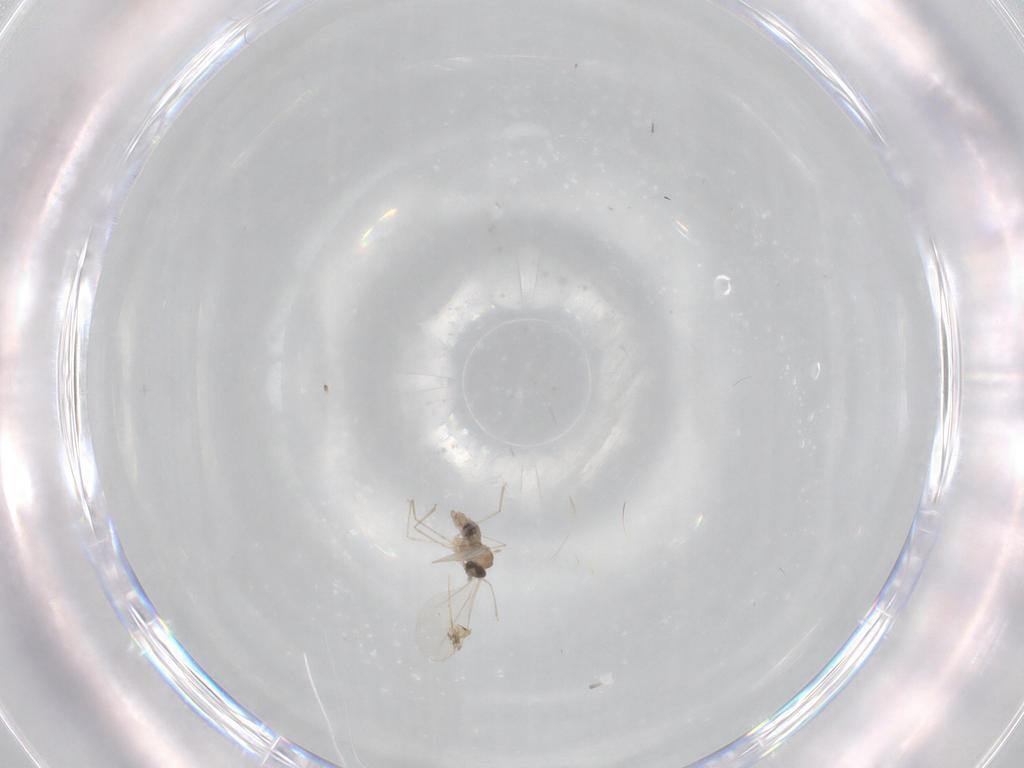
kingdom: Animalia
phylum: Arthropoda
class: Insecta
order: Diptera
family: Cecidomyiidae
